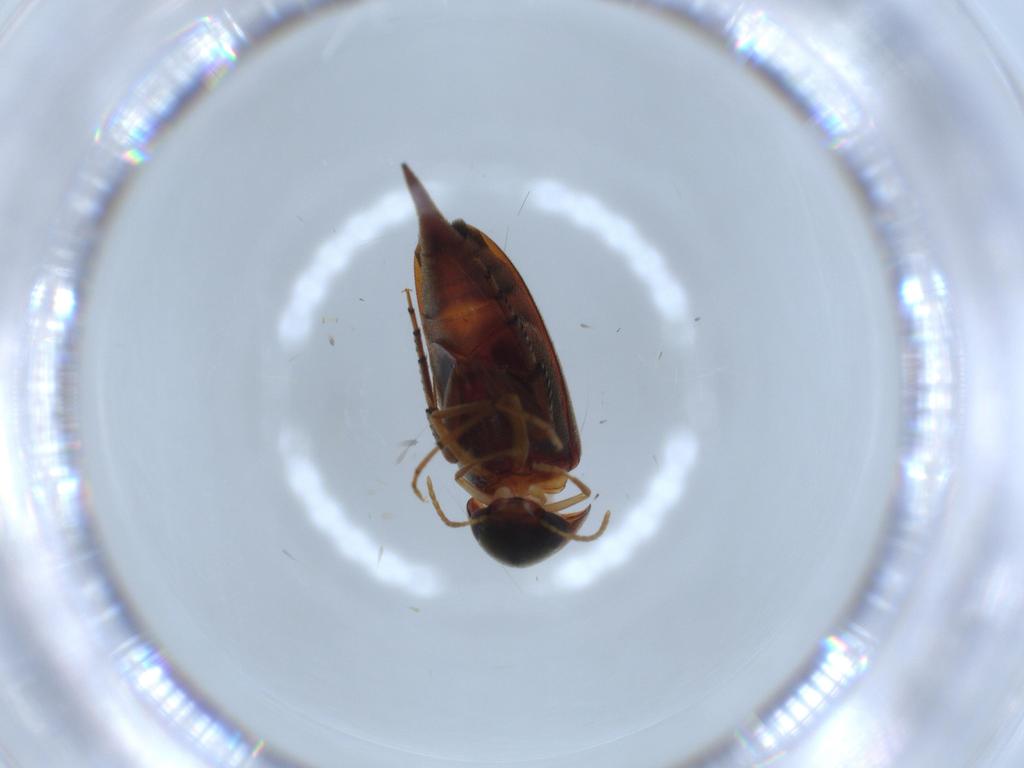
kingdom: Animalia
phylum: Arthropoda
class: Insecta
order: Coleoptera
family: Mordellidae
